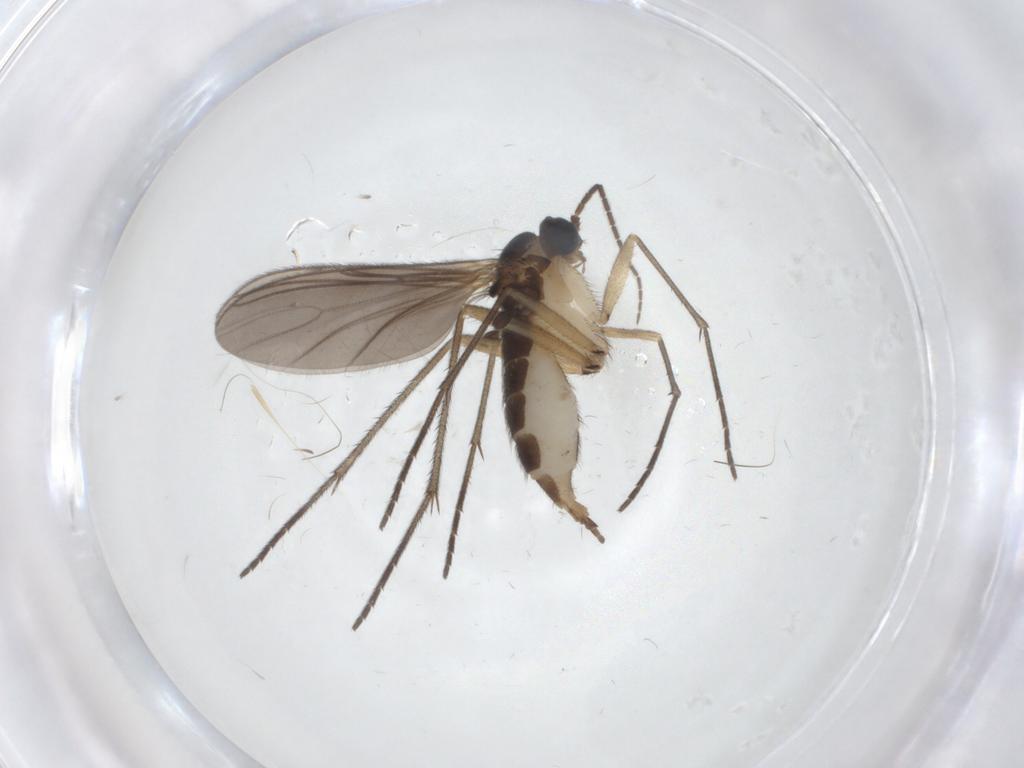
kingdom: Animalia
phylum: Arthropoda
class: Insecta
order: Diptera
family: Sciaridae
